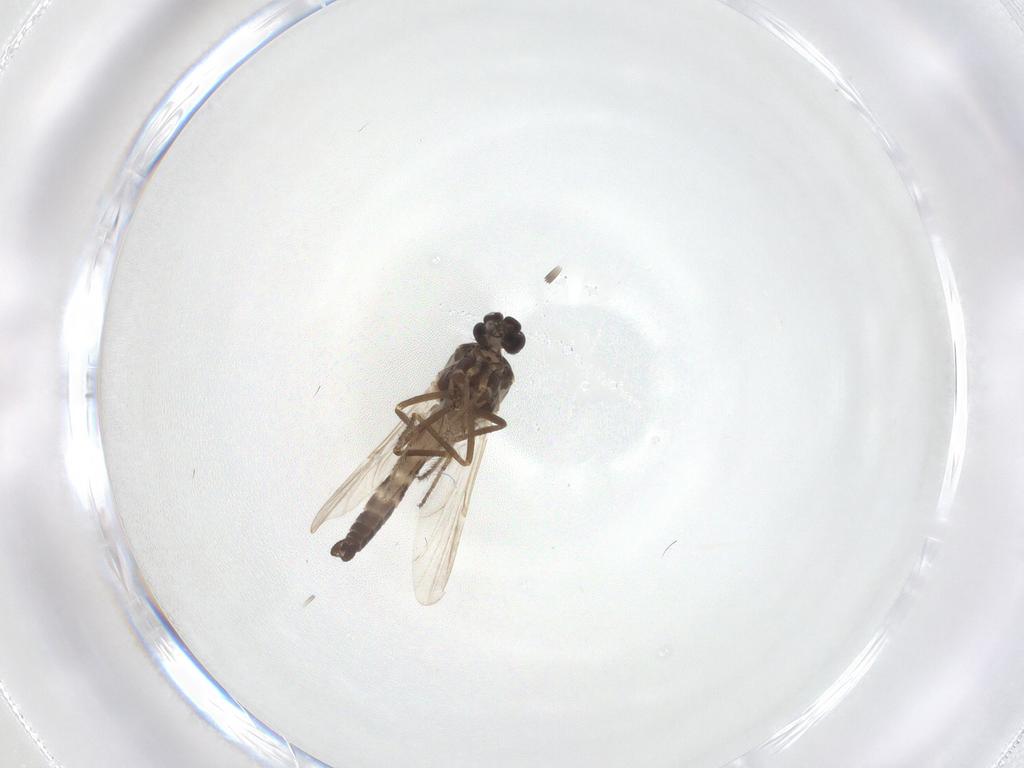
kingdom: Animalia
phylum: Arthropoda
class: Insecta
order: Diptera
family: Ceratopogonidae
